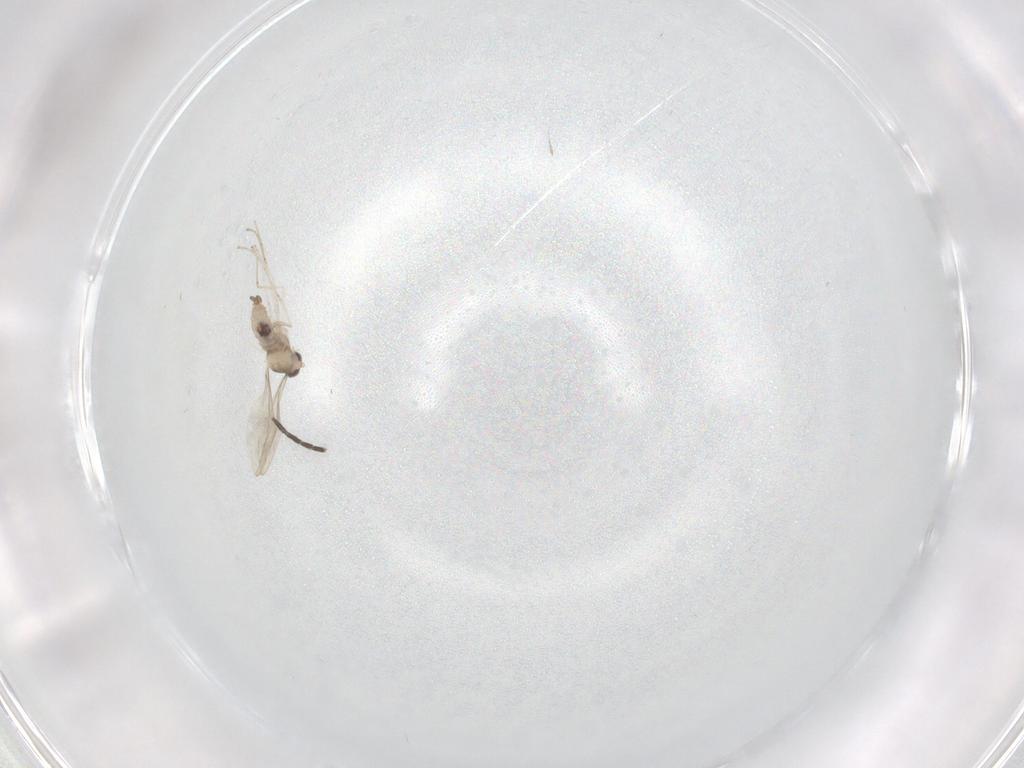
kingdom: Animalia
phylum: Arthropoda
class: Insecta
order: Diptera
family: Sciaridae
